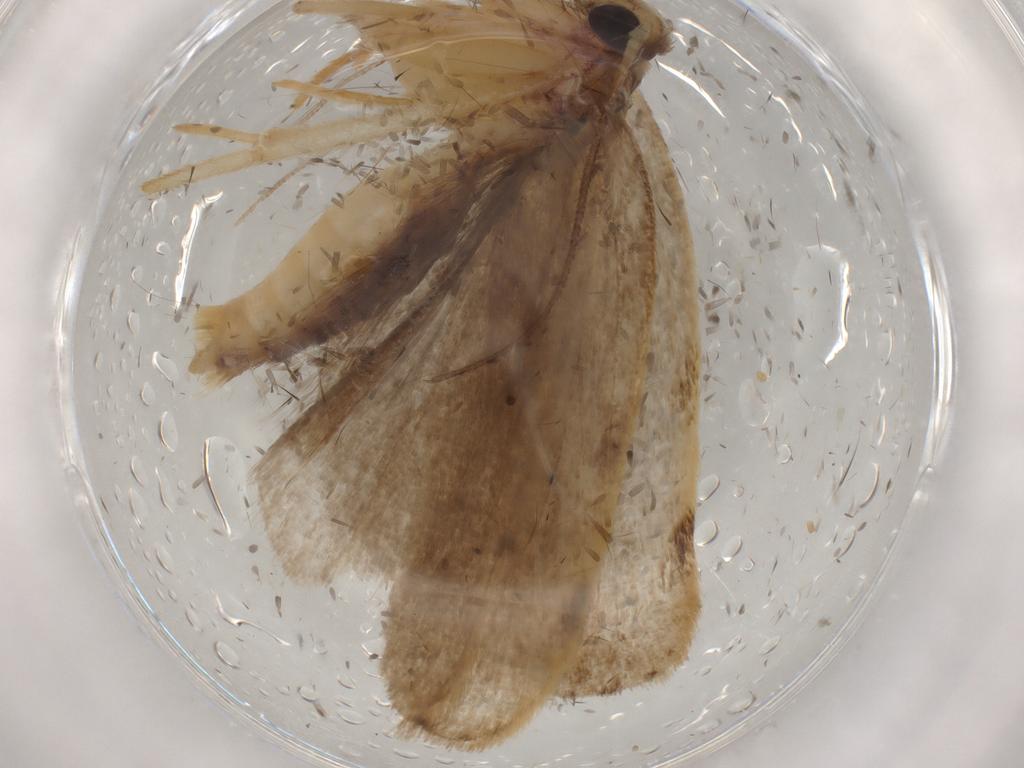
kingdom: Animalia
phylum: Arthropoda
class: Insecta
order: Lepidoptera
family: Depressariidae
